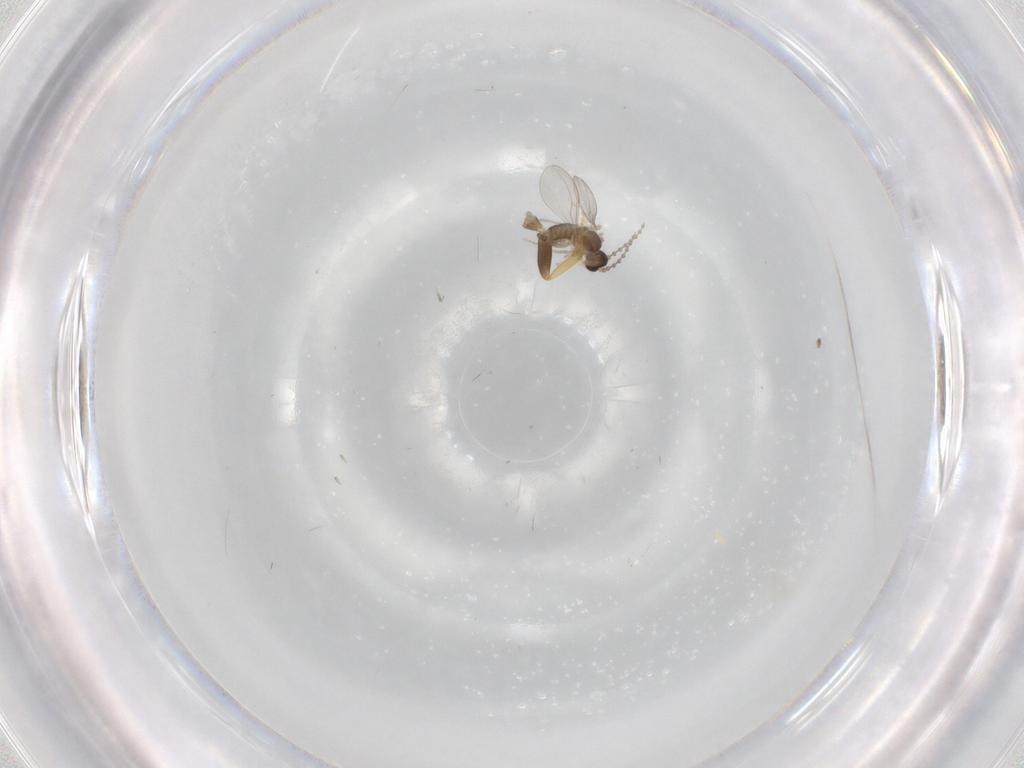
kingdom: Animalia
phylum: Arthropoda
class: Insecta
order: Diptera
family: Cecidomyiidae
